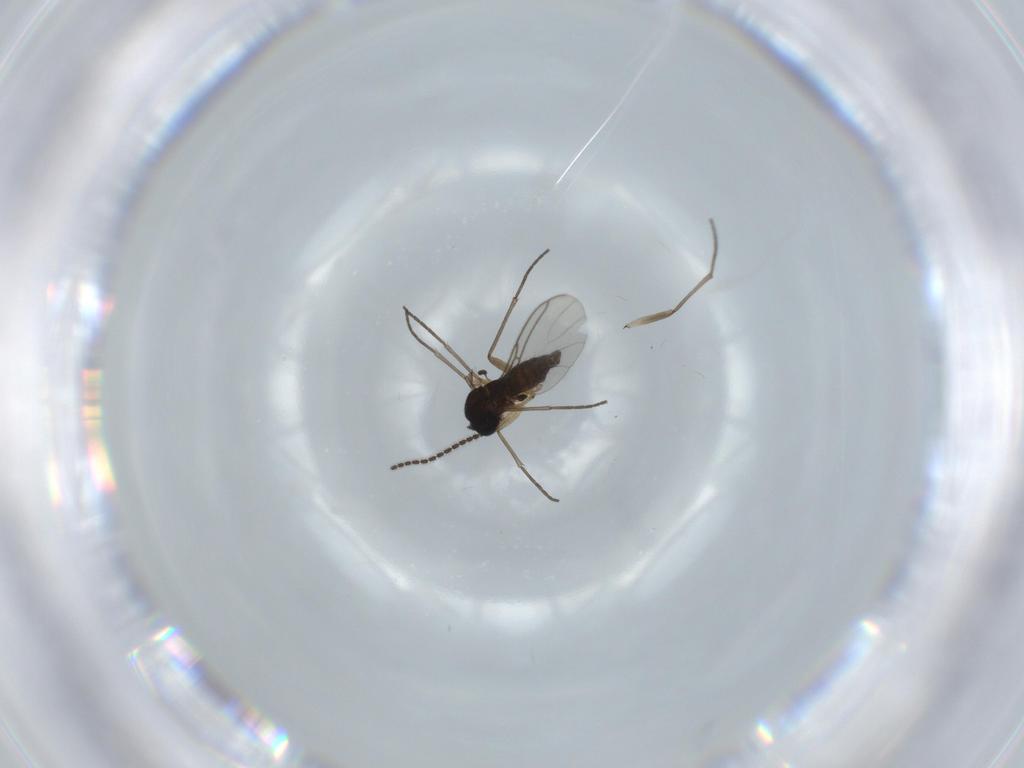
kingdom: Animalia
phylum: Arthropoda
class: Insecta
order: Diptera
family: Sciaridae
